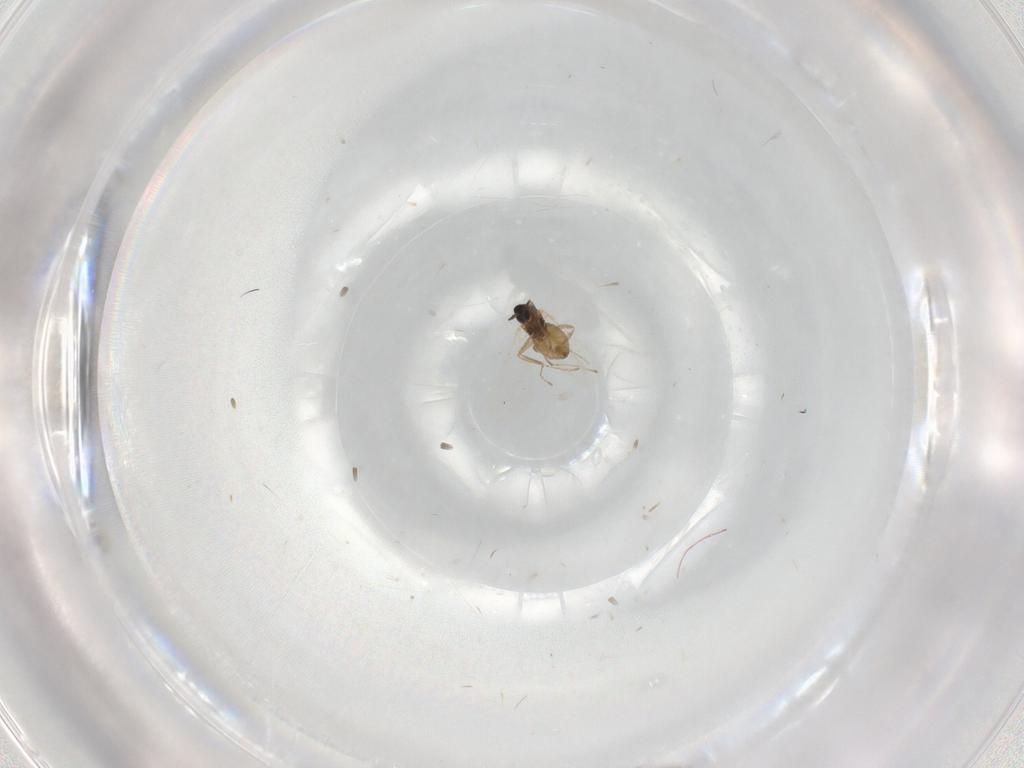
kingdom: Animalia
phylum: Arthropoda
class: Insecta
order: Diptera
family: Cecidomyiidae
